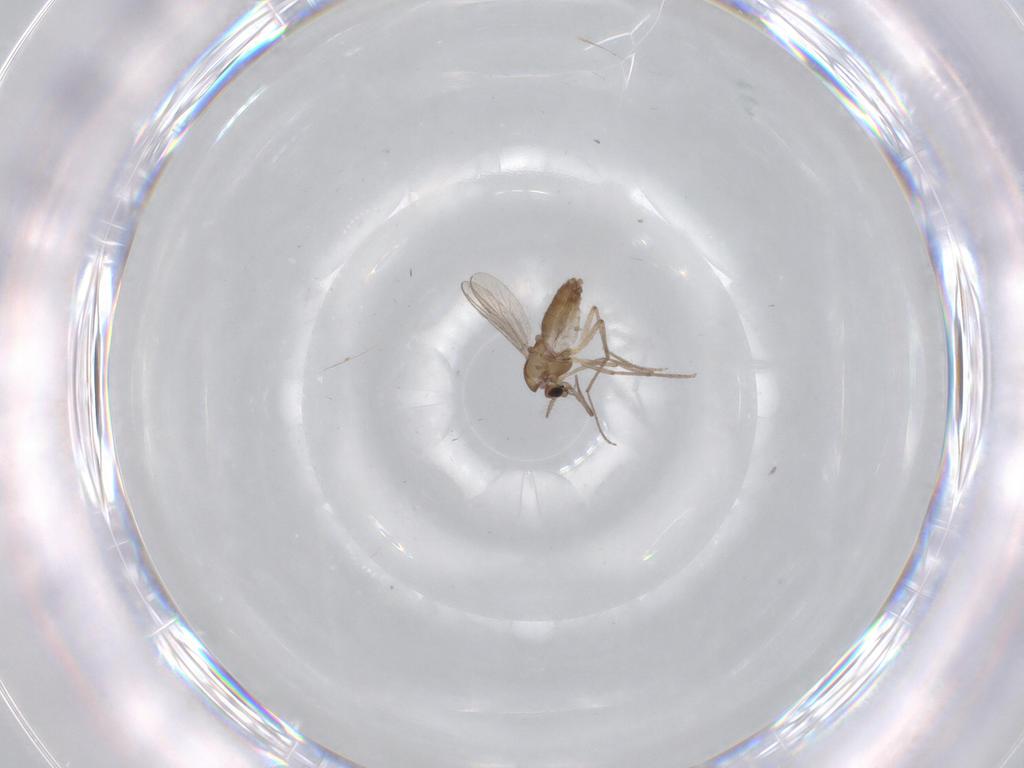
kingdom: Animalia
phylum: Arthropoda
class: Insecta
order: Diptera
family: Chironomidae
